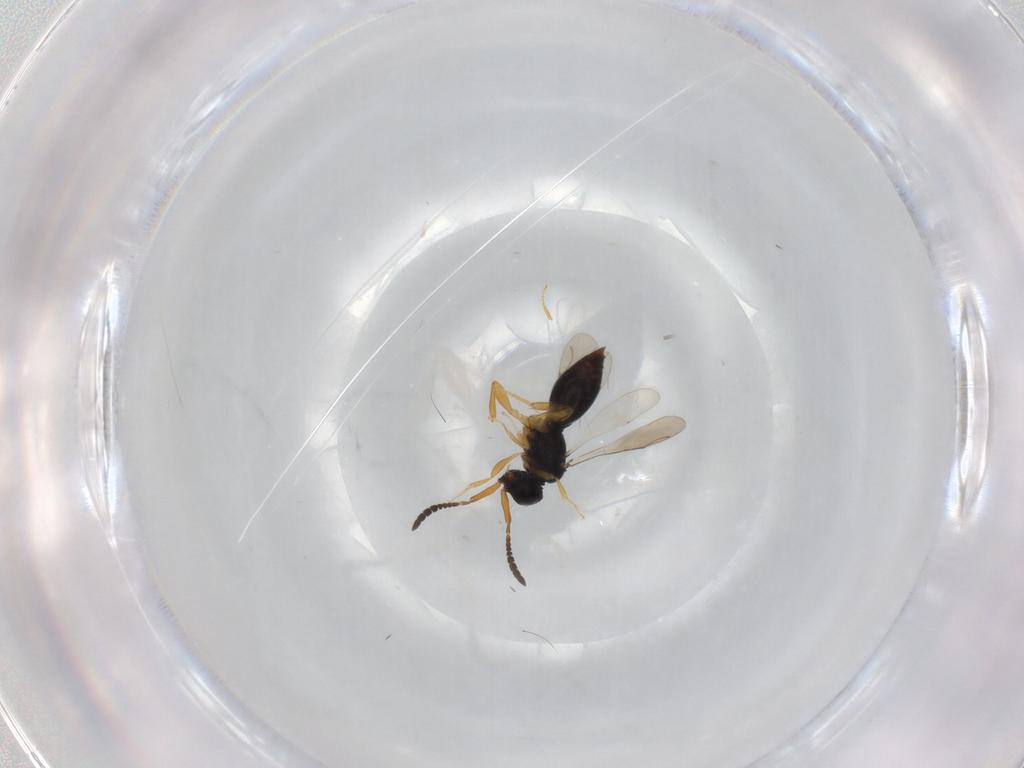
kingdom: Animalia
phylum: Arthropoda
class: Insecta
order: Hymenoptera
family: Ceraphronidae
